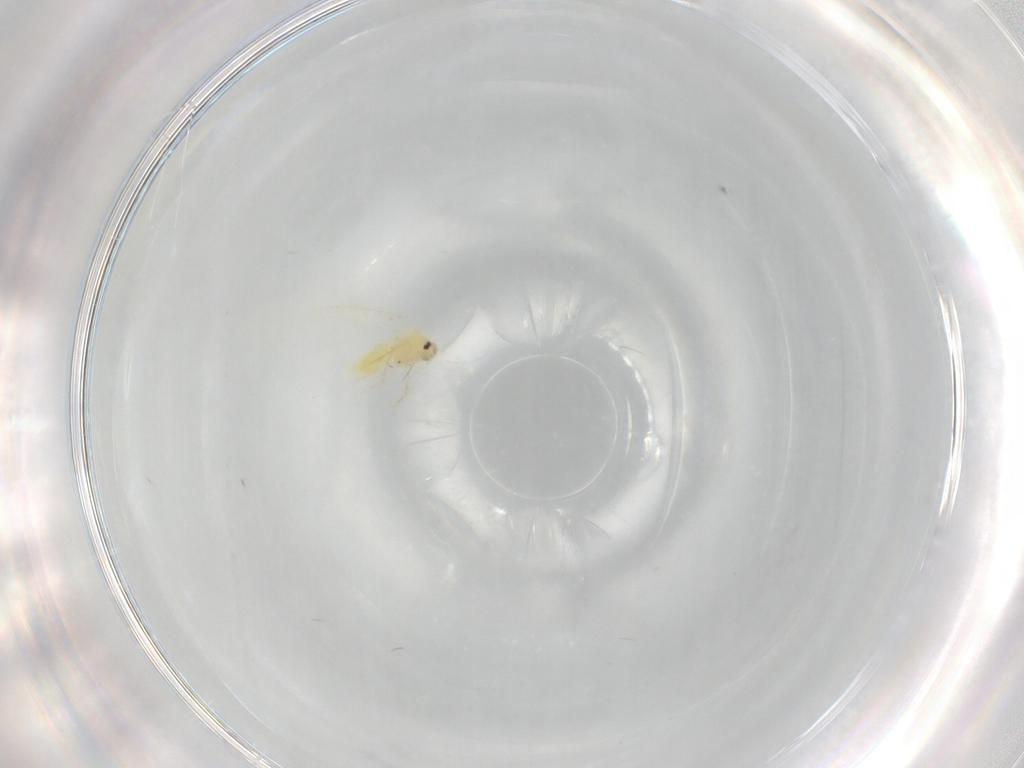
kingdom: Animalia
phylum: Arthropoda
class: Insecta
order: Hemiptera
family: Aleyrodidae
